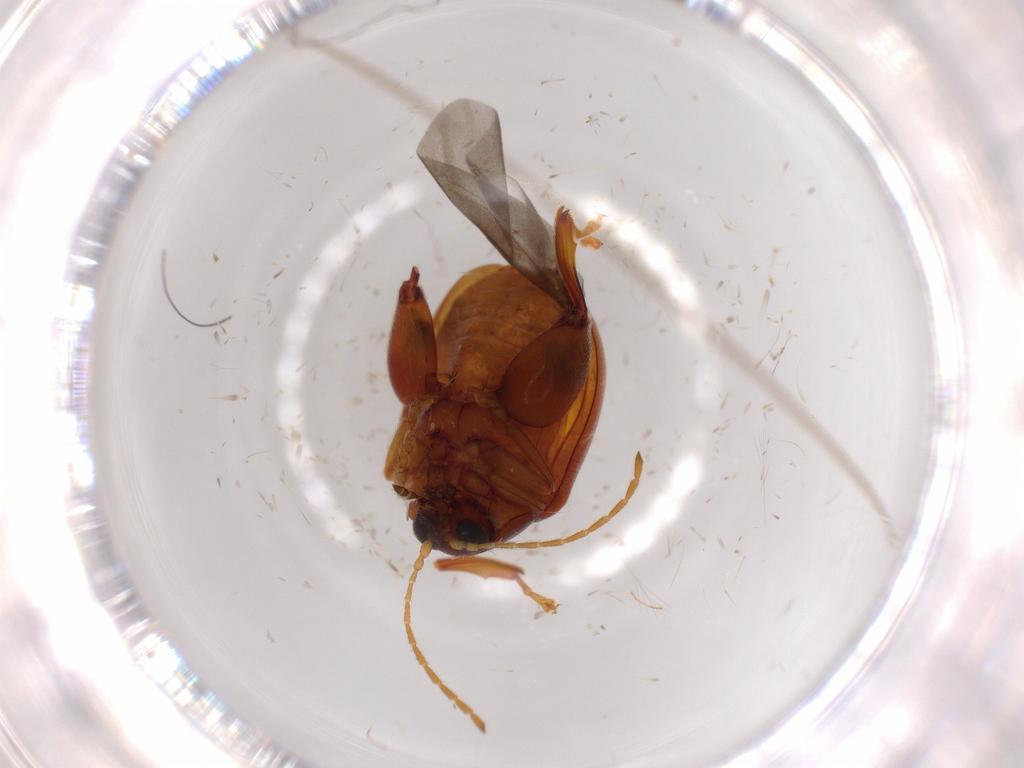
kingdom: Animalia
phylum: Arthropoda
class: Insecta
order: Coleoptera
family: Chrysomelidae
